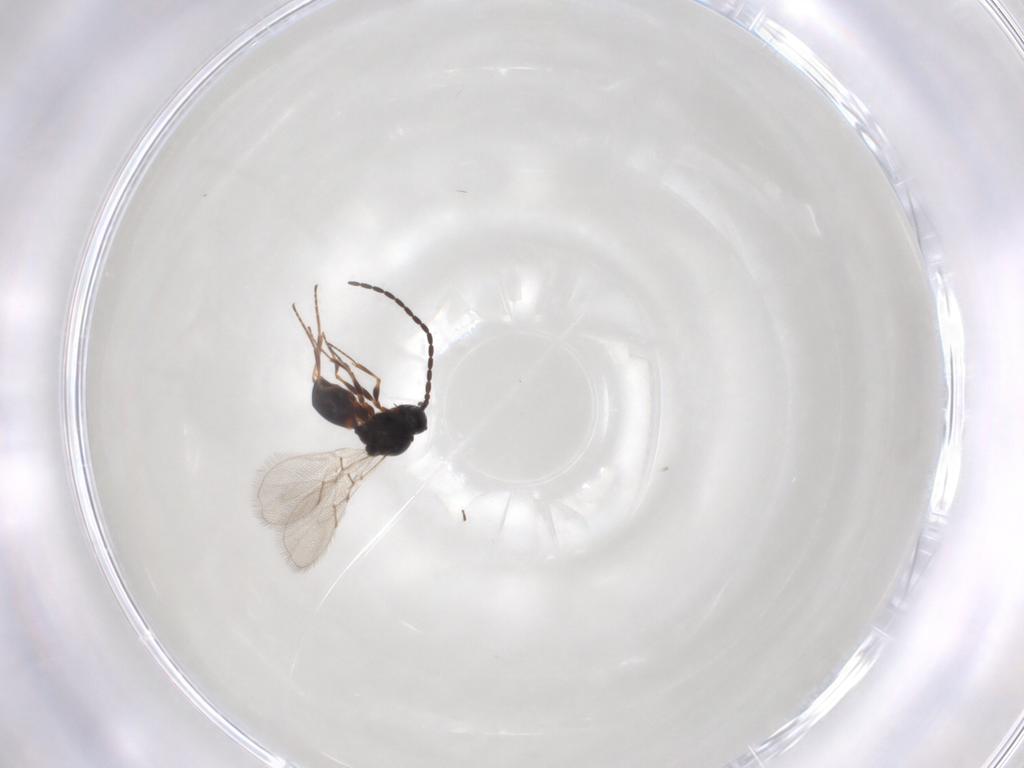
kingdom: Animalia
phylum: Arthropoda
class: Insecta
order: Hymenoptera
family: Figitidae
